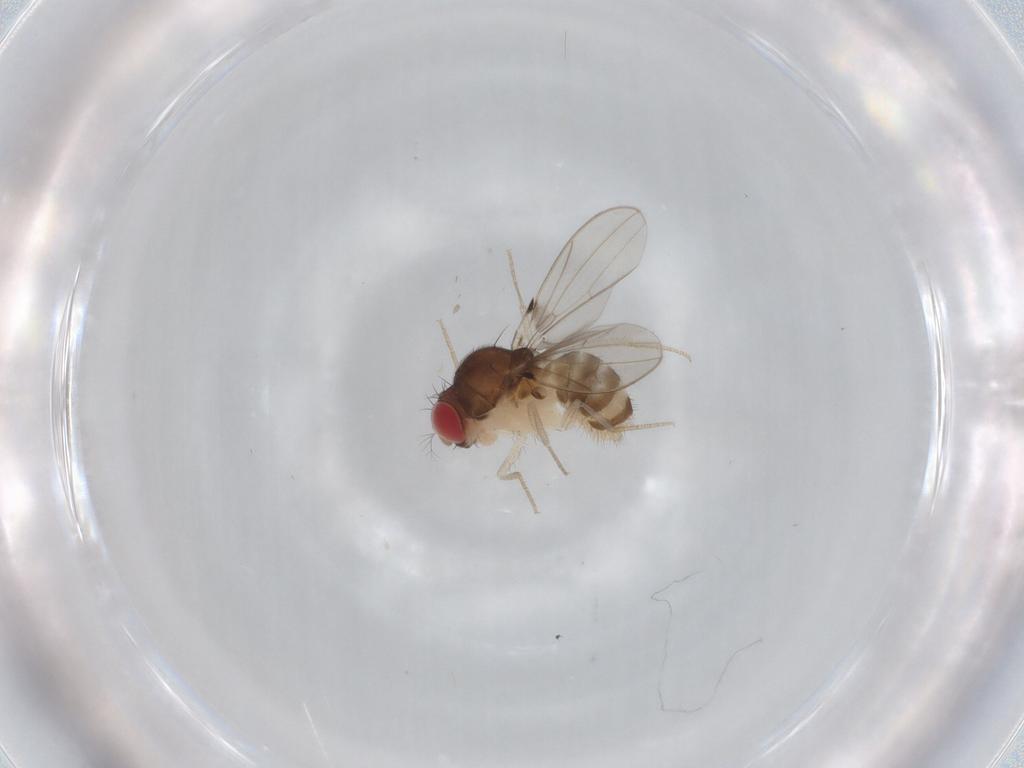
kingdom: Animalia
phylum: Arthropoda
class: Insecta
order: Diptera
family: Drosophilidae
